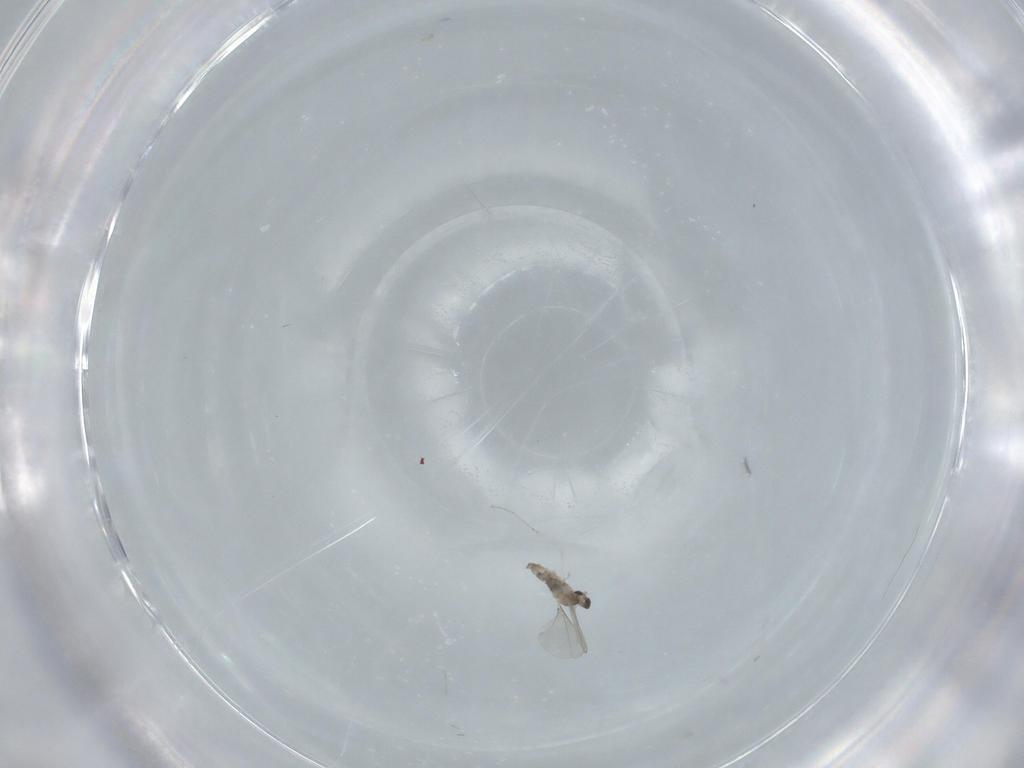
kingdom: Animalia
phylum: Arthropoda
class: Insecta
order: Diptera
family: Cecidomyiidae
